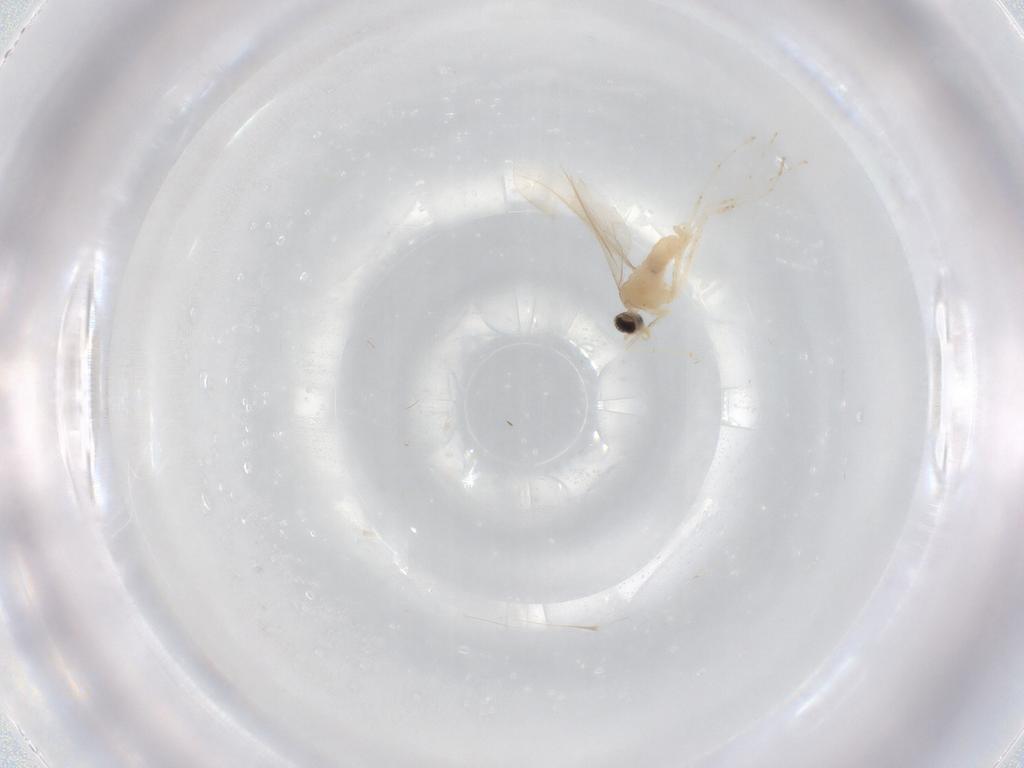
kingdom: Animalia
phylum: Arthropoda
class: Insecta
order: Diptera
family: Cecidomyiidae
